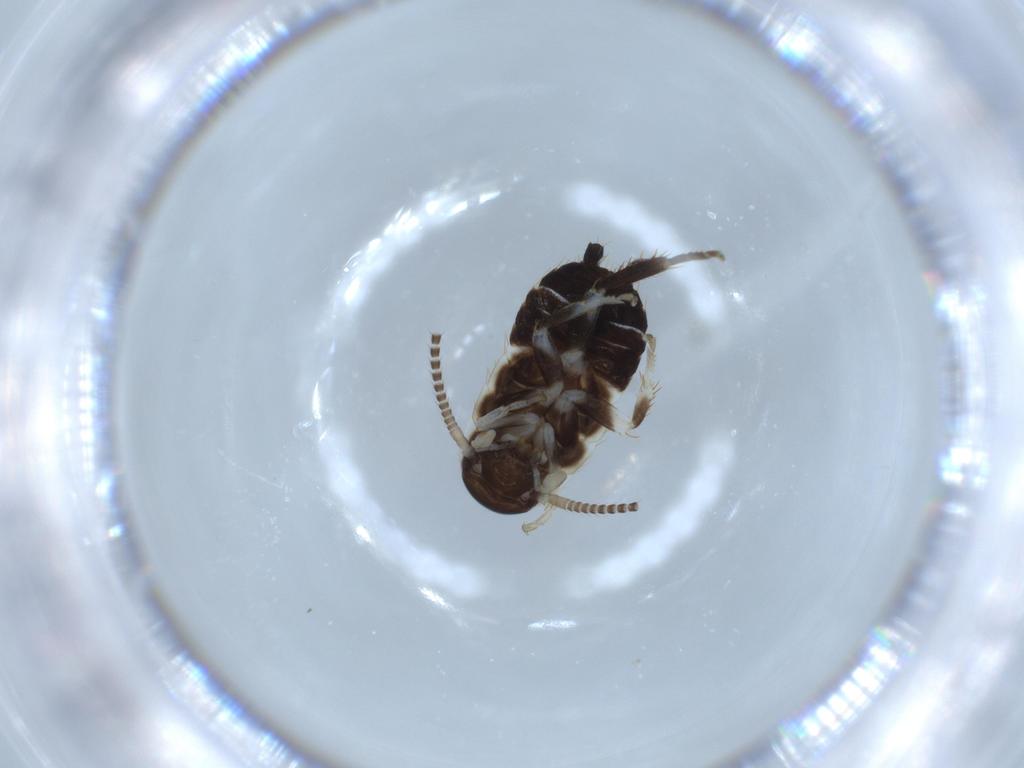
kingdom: Animalia
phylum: Arthropoda
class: Insecta
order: Blattodea
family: Ectobiidae
